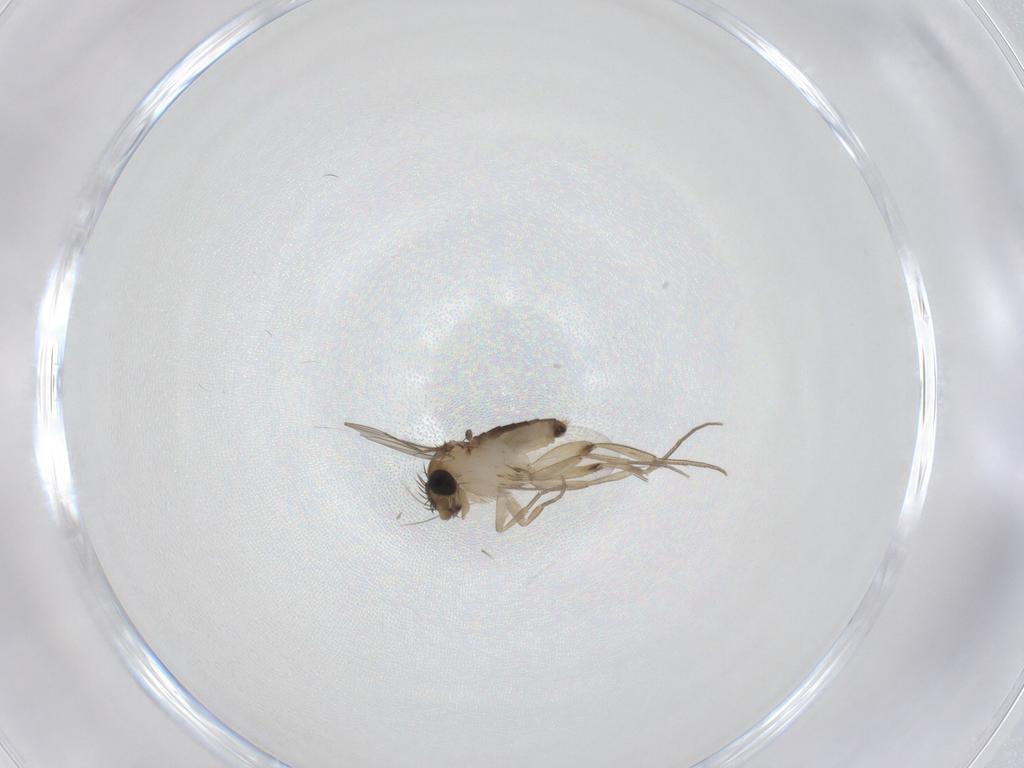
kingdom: Animalia
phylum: Arthropoda
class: Insecta
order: Diptera
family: Phoridae
